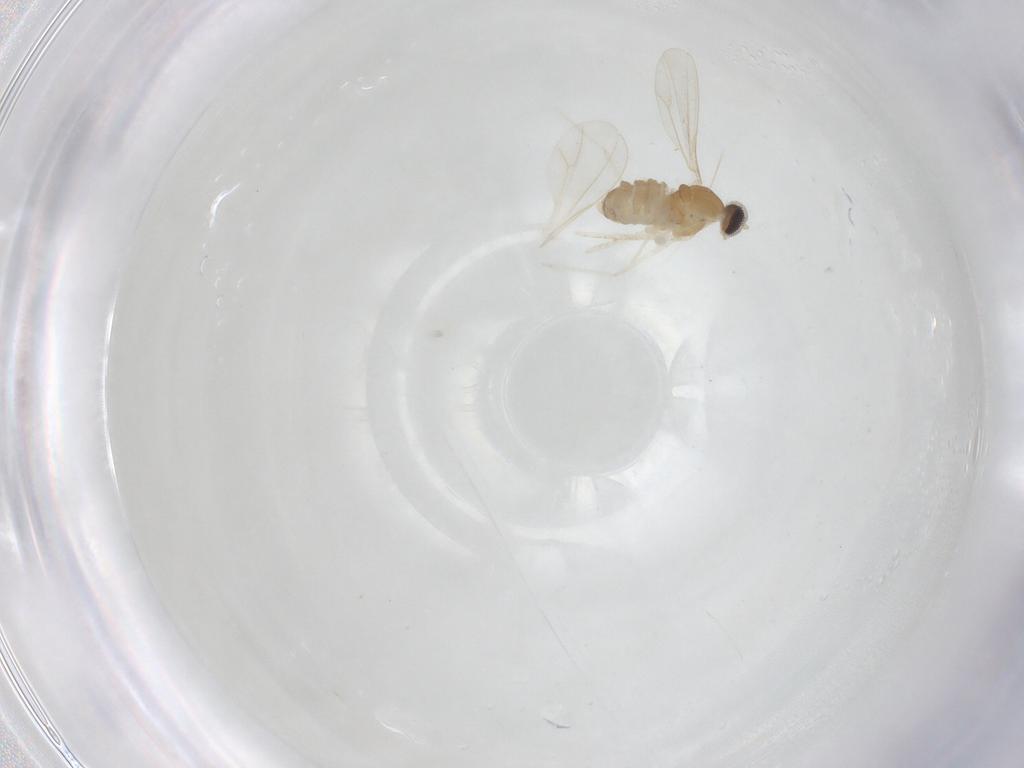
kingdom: Animalia
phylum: Arthropoda
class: Insecta
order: Diptera
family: Cecidomyiidae
